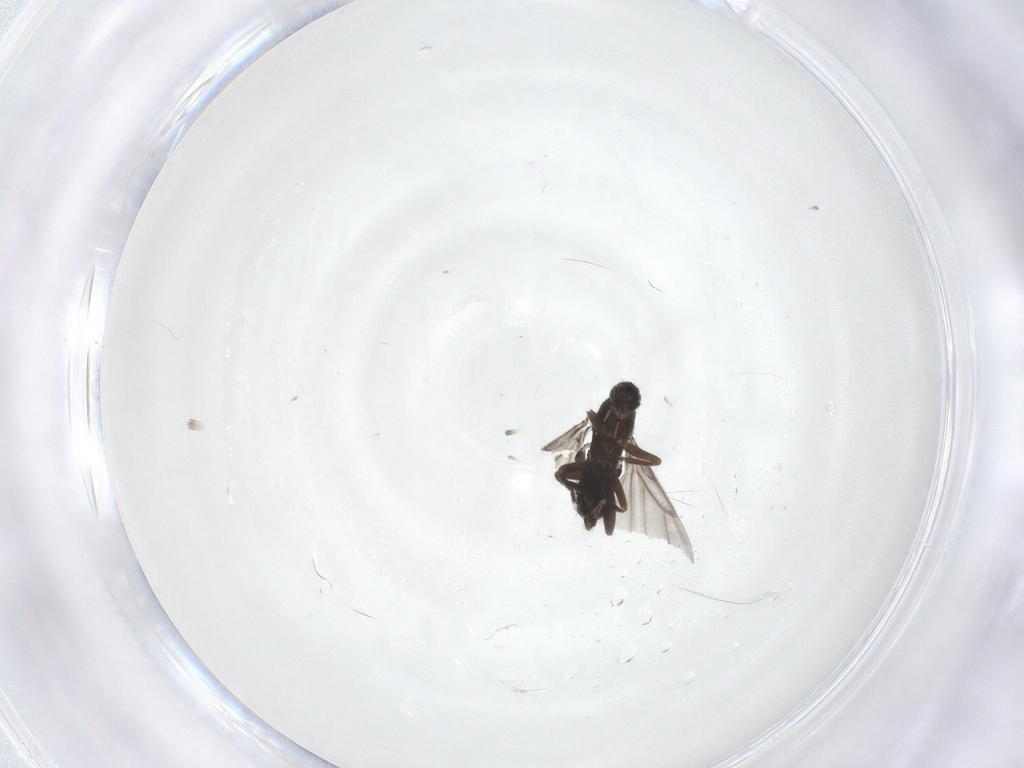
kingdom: Animalia
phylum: Arthropoda
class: Insecta
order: Diptera
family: Phoridae
